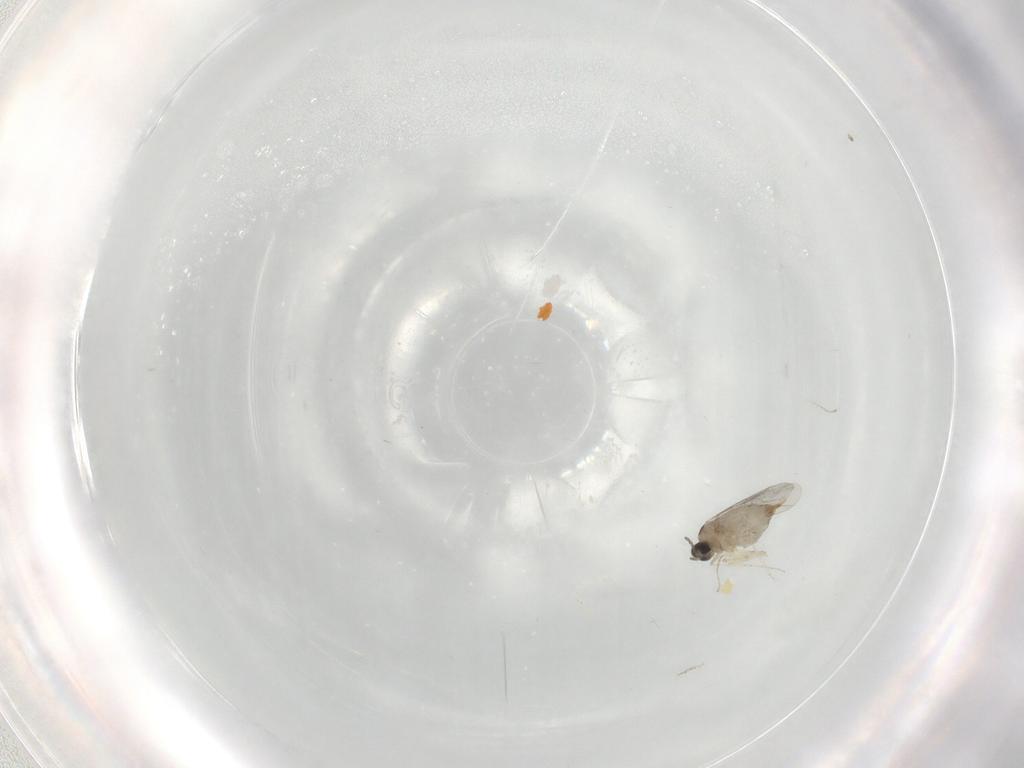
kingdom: Animalia
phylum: Arthropoda
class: Insecta
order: Diptera
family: Cecidomyiidae
